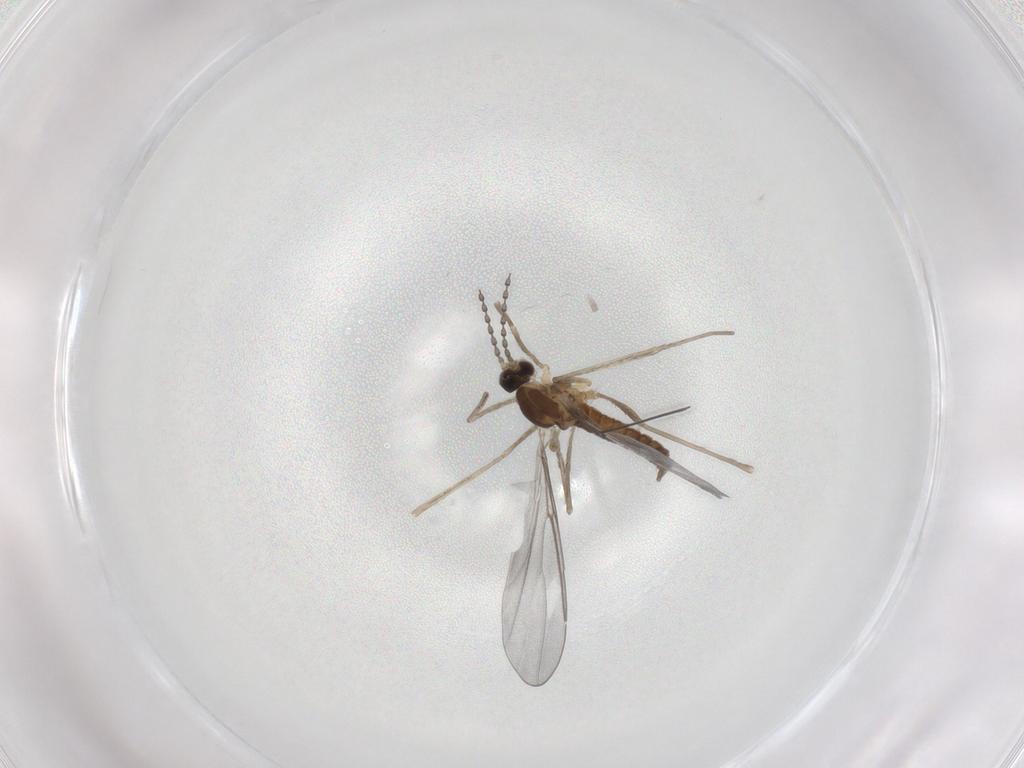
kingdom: Animalia
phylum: Arthropoda
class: Insecta
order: Diptera
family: Cecidomyiidae
